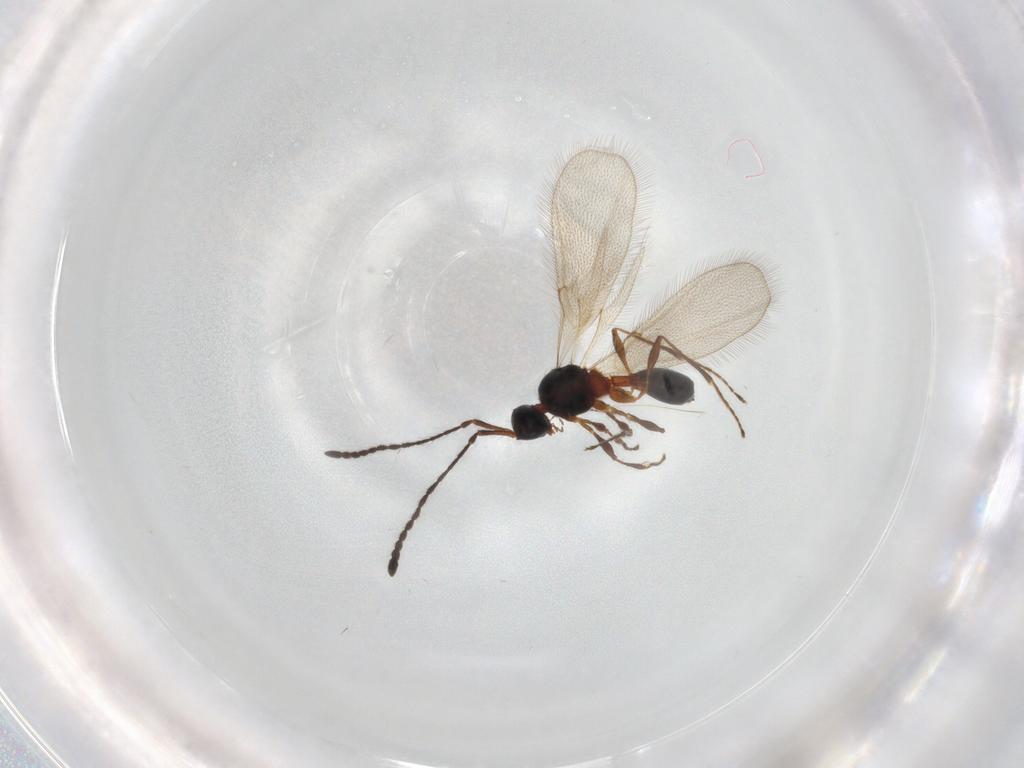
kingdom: Animalia
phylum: Arthropoda
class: Insecta
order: Hymenoptera
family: Diapriidae
